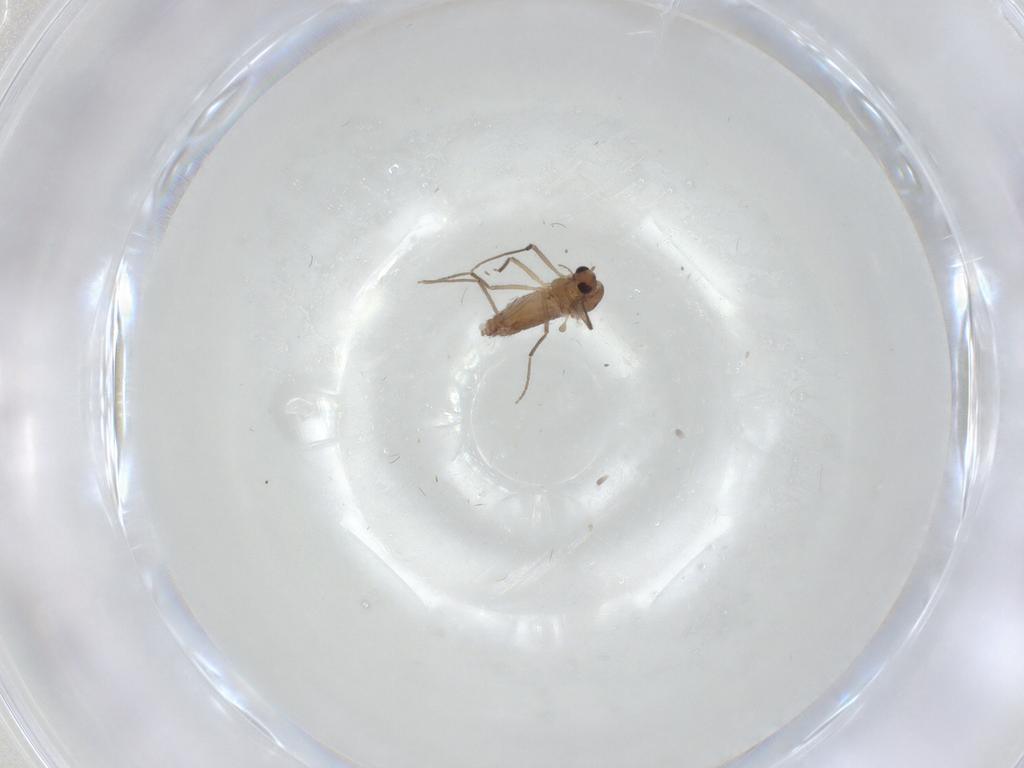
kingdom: Animalia
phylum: Arthropoda
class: Insecta
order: Diptera
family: Chironomidae
